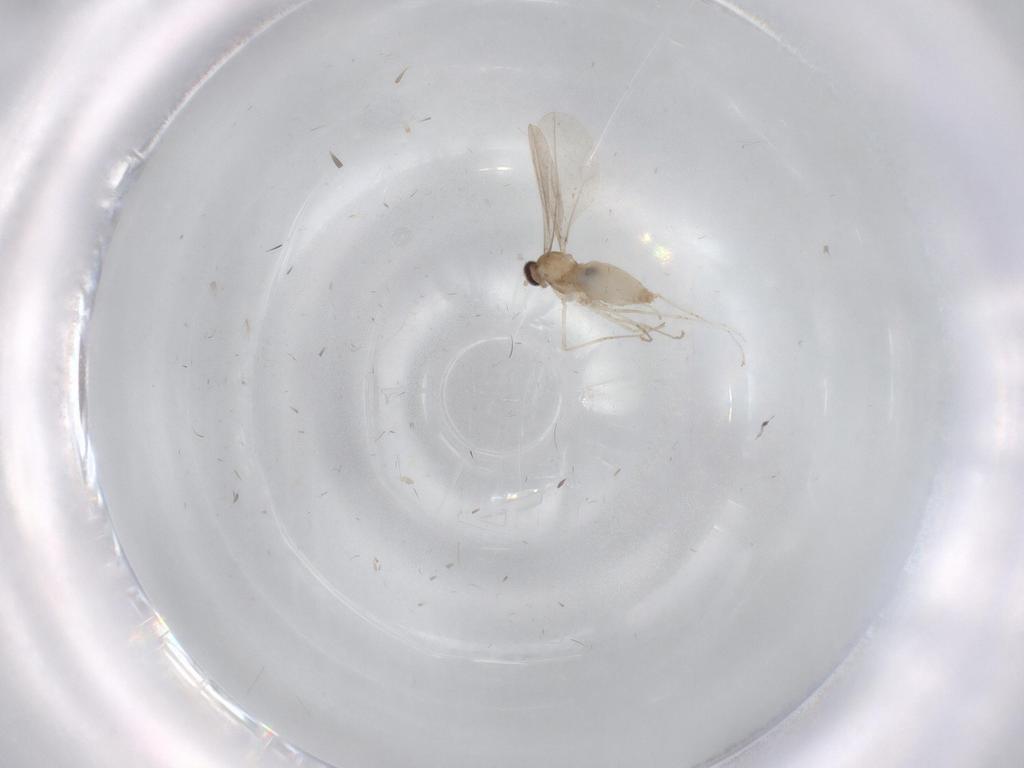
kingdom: Animalia
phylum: Arthropoda
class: Insecta
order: Diptera
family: Cecidomyiidae
